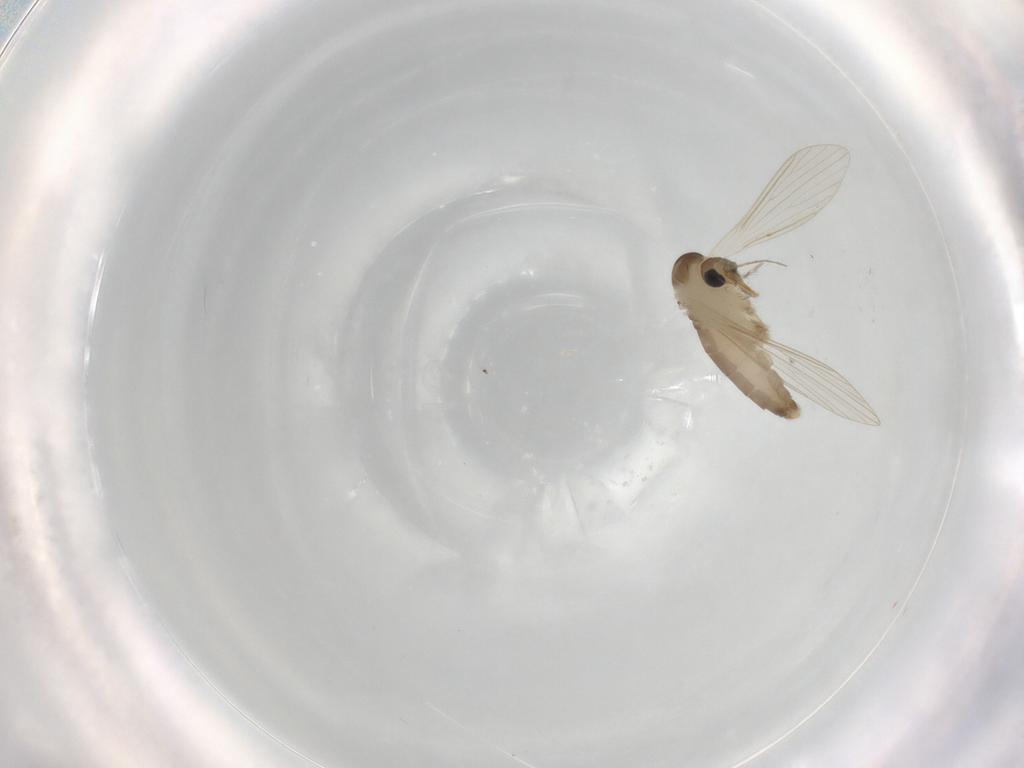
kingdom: Animalia
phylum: Arthropoda
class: Insecta
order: Diptera
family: Psychodidae
